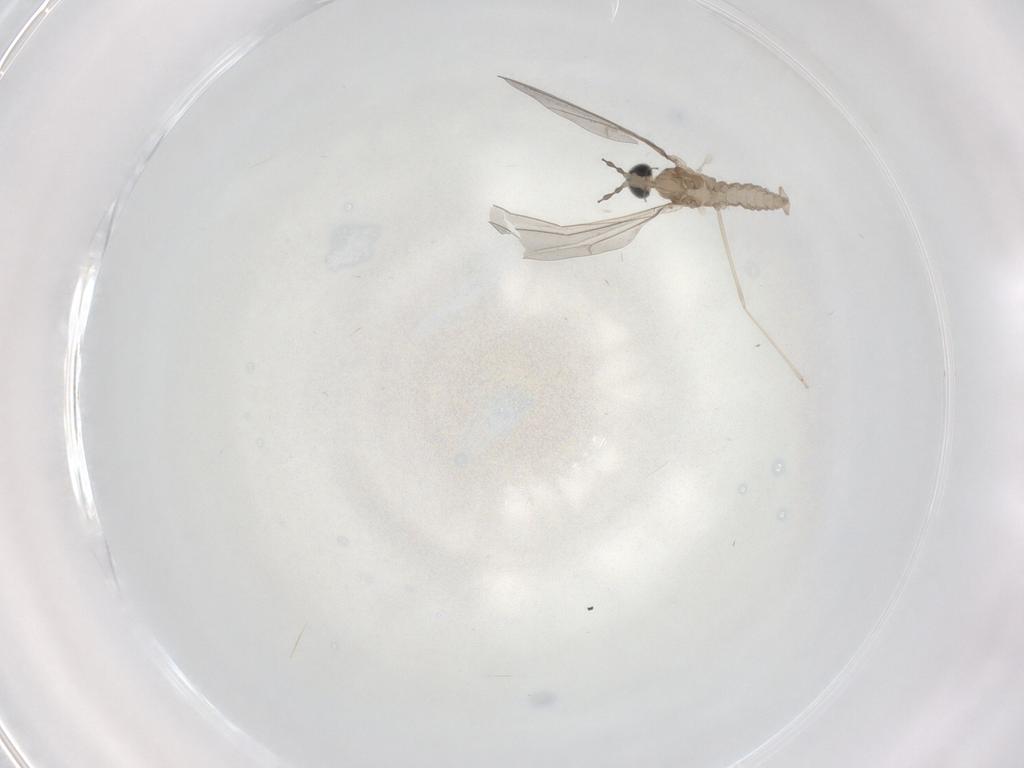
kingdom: Animalia
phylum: Arthropoda
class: Insecta
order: Diptera
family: Cecidomyiidae
